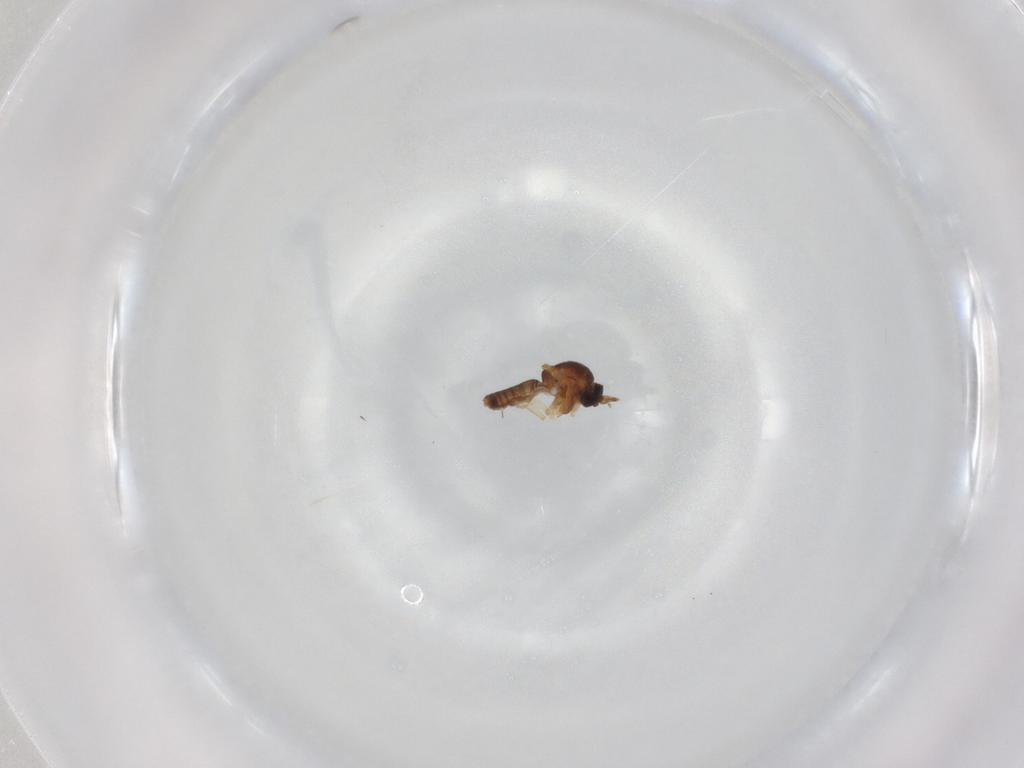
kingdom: Animalia
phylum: Arthropoda
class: Insecta
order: Diptera
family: Ceratopogonidae
